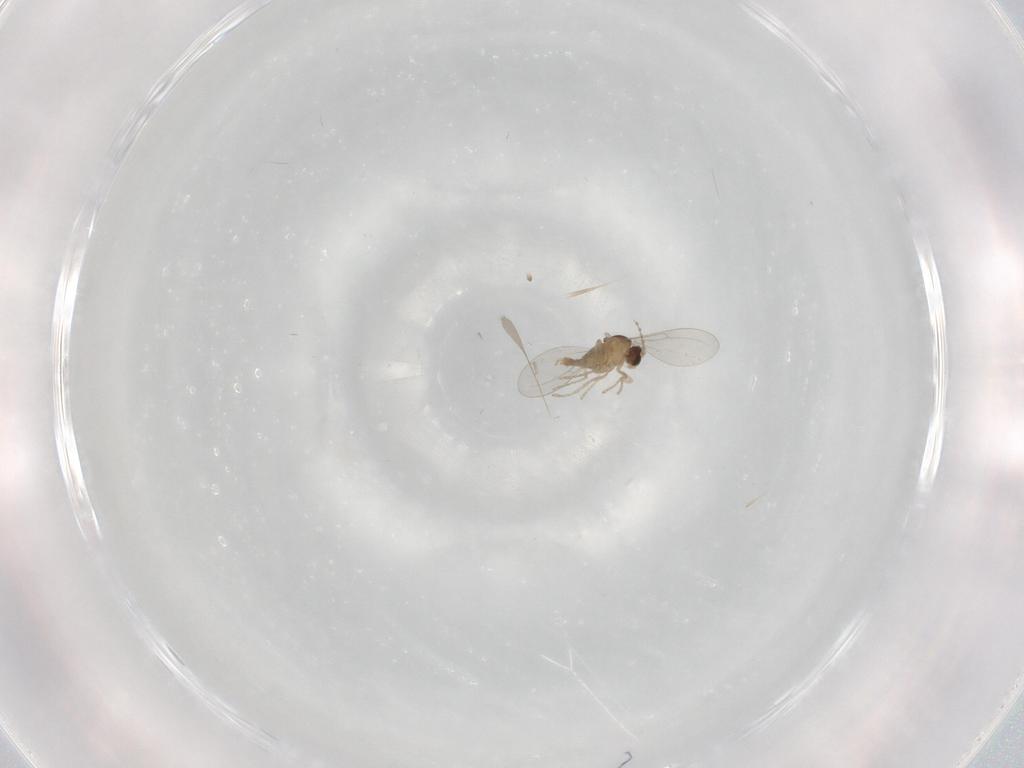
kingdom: Animalia
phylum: Arthropoda
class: Insecta
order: Diptera
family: Cecidomyiidae
